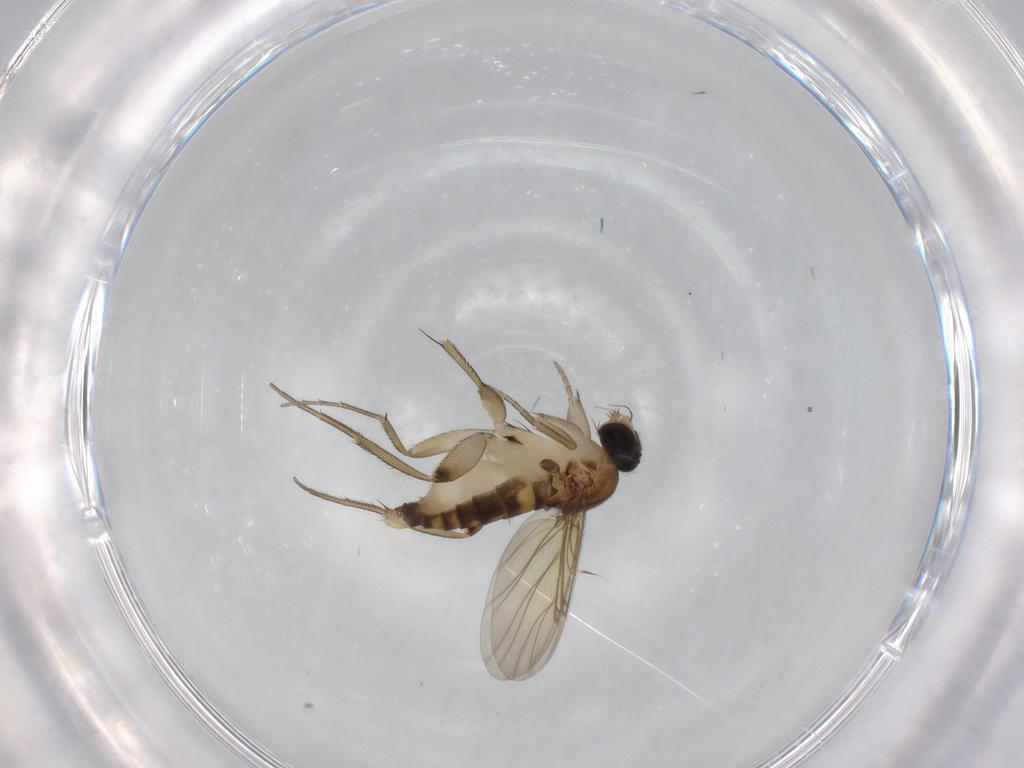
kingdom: Animalia
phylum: Arthropoda
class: Insecta
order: Diptera
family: Phoridae
